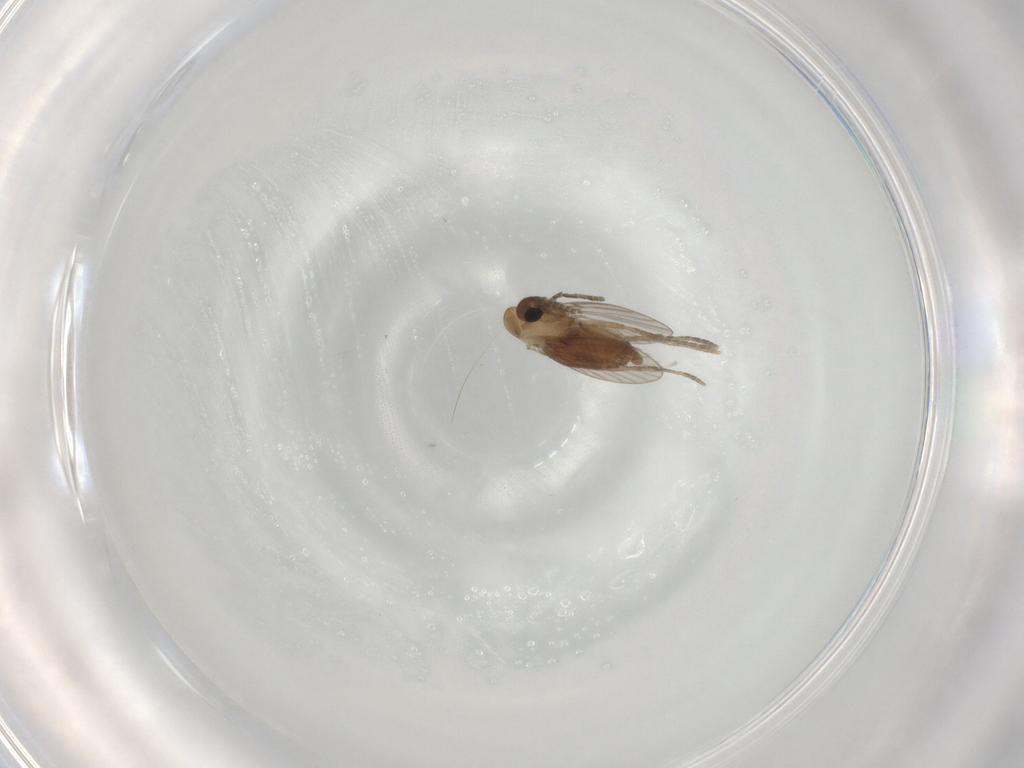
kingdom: Animalia
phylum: Arthropoda
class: Insecta
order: Diptera
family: Psychodidae
